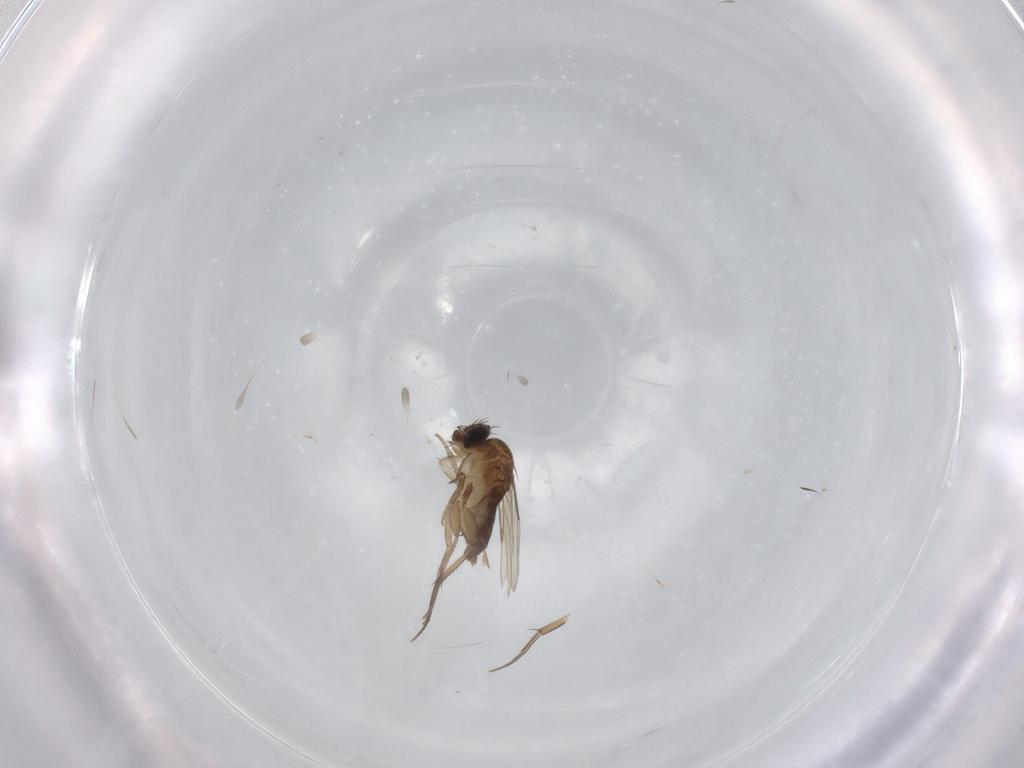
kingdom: Animalia
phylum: Arthropoda
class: Insecta
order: Diptera
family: Phoridae
